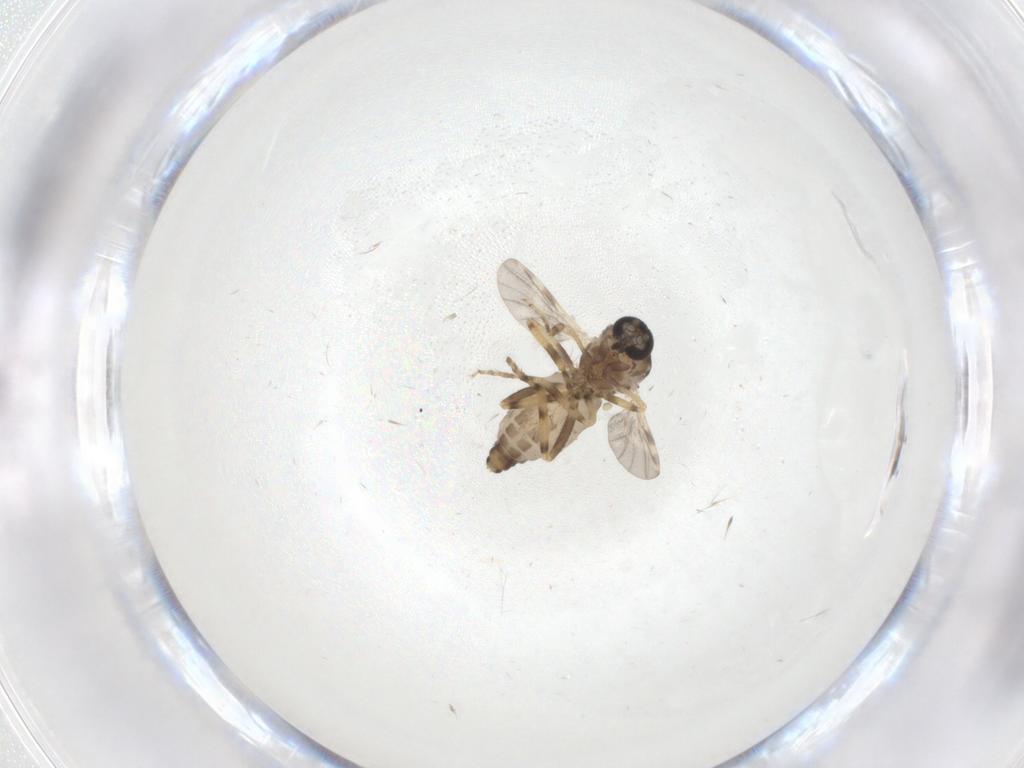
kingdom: Animalia
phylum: Arthropoda
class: Insecta
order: Diptera
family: Ceratopogonidae
